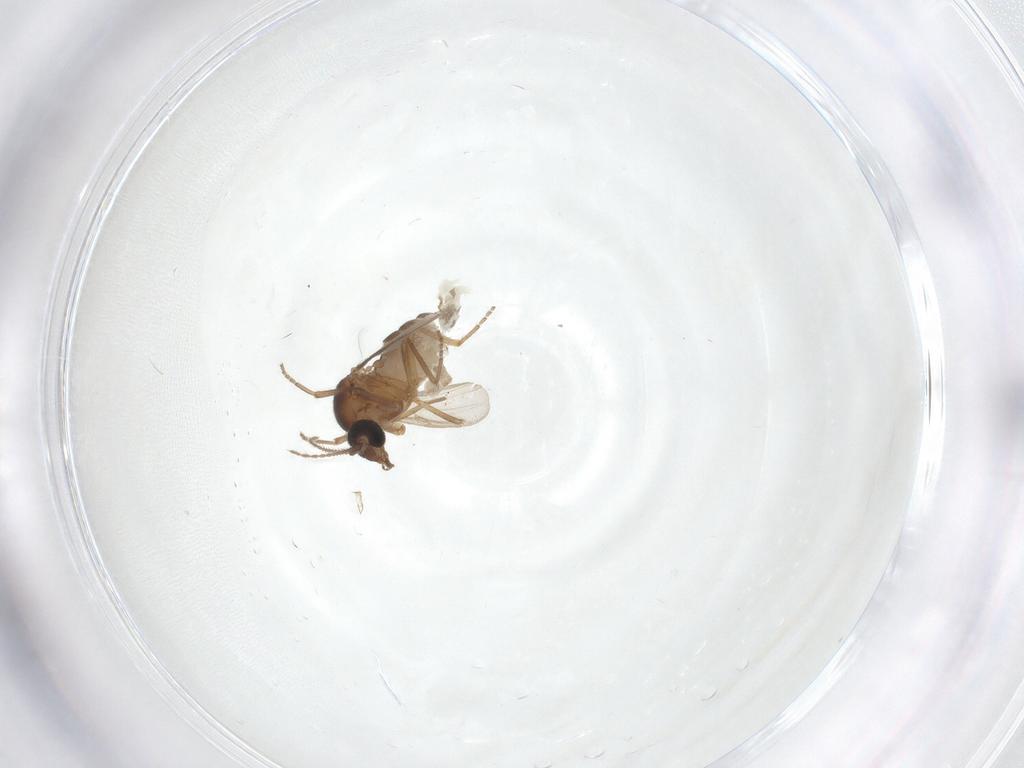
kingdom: Animalia
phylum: Arthropoda
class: Insecta
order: Diptera
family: Ceratopogonidae
